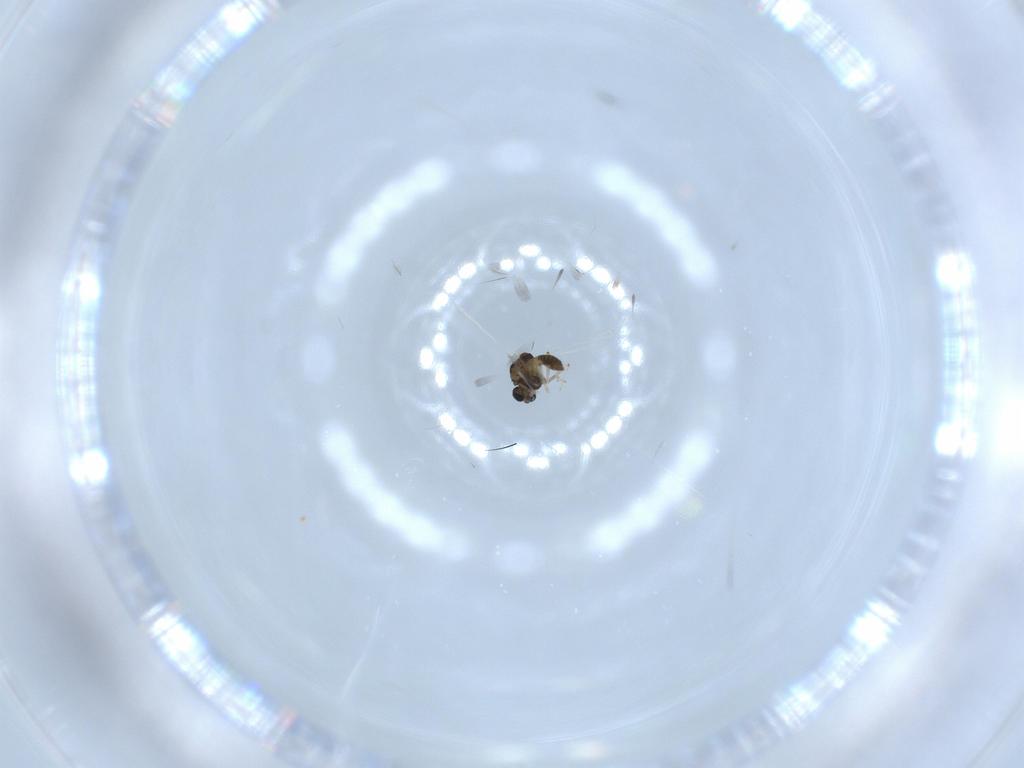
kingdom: Animalia
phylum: Arthropoda
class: Insecta
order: Diptera
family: Chironomidae
